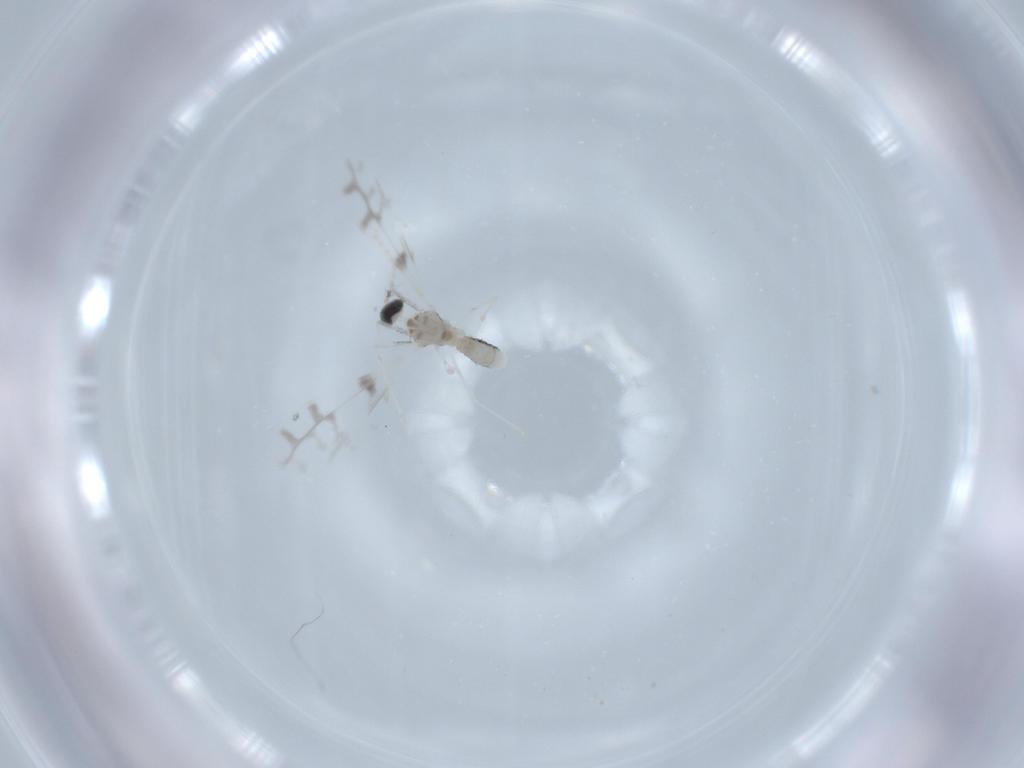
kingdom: Animalia
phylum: Arthropoda
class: Insecta
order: Diptera
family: Cecidomyiidae
